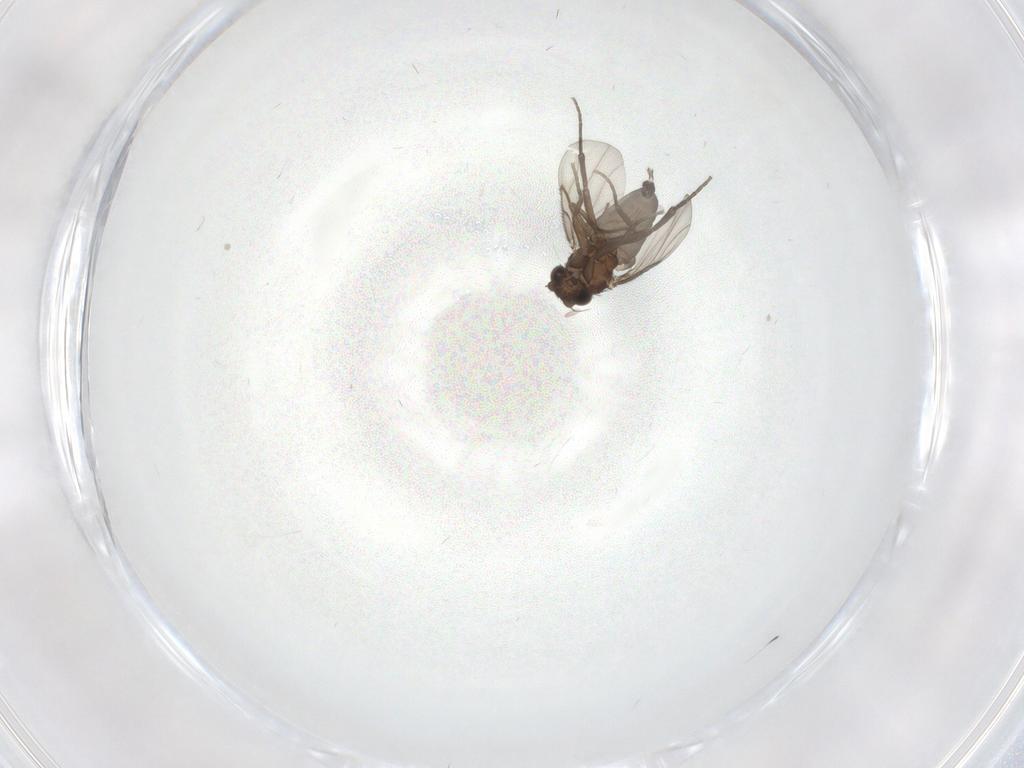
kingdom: Animalia
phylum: Arthropoda
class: Insecta
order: Diptera
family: Phoridae
